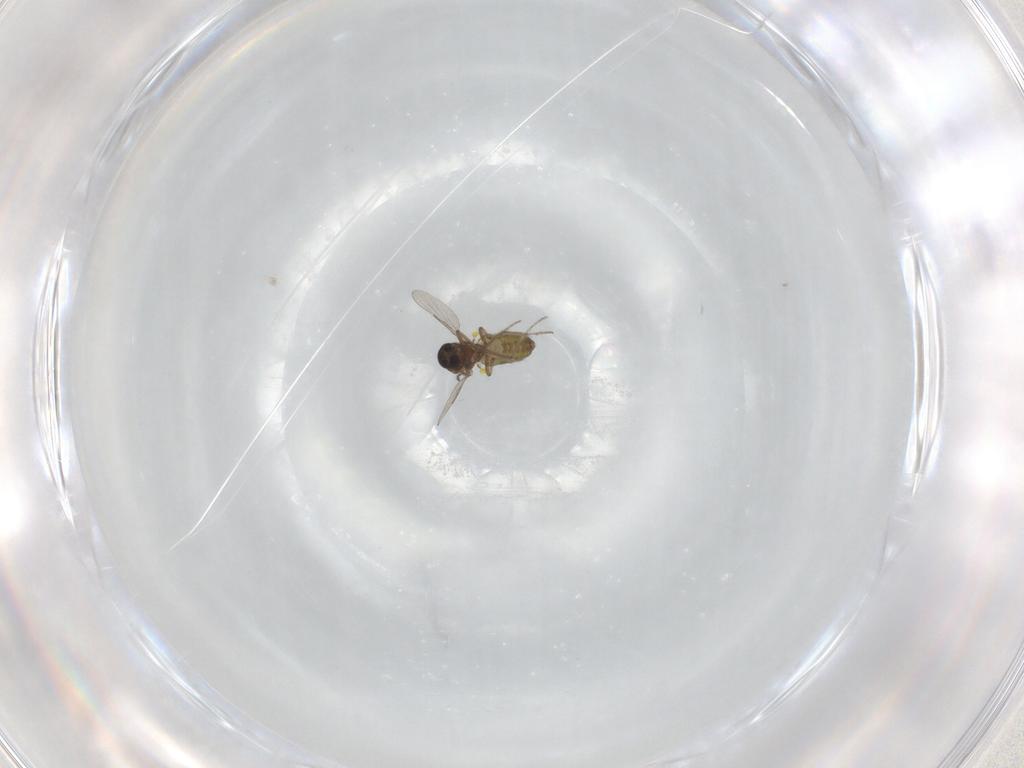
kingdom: Animalia
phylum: Arthropoda
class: Insecta
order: Diptera
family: Ceratopogonidae
